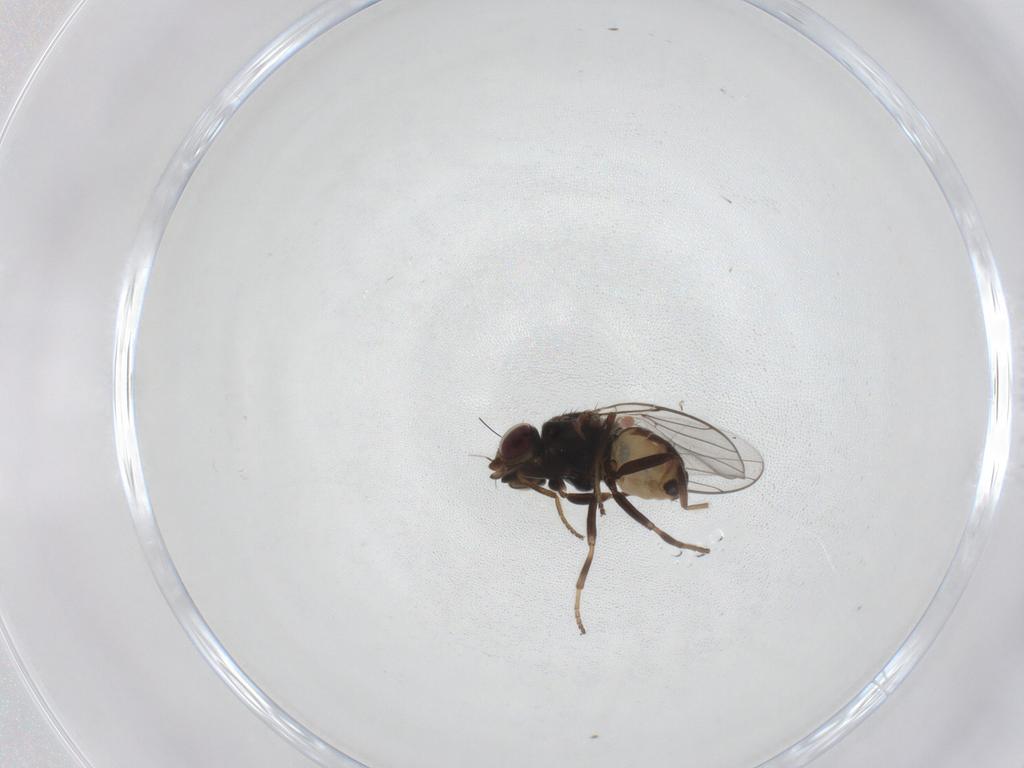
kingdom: Animalia
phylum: Arthropoda
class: Insecta
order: Diptera
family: Chloropidae
